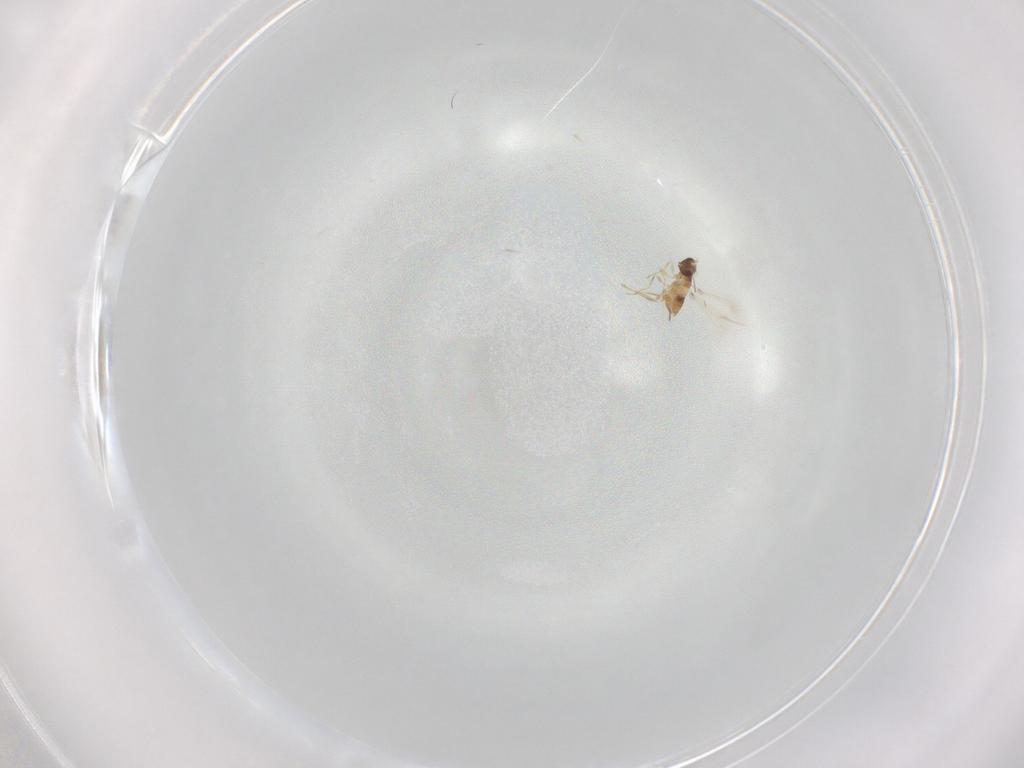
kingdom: Animalia
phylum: Arthropoda
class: Insecta
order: Hymenoptera
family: Mymaridae
